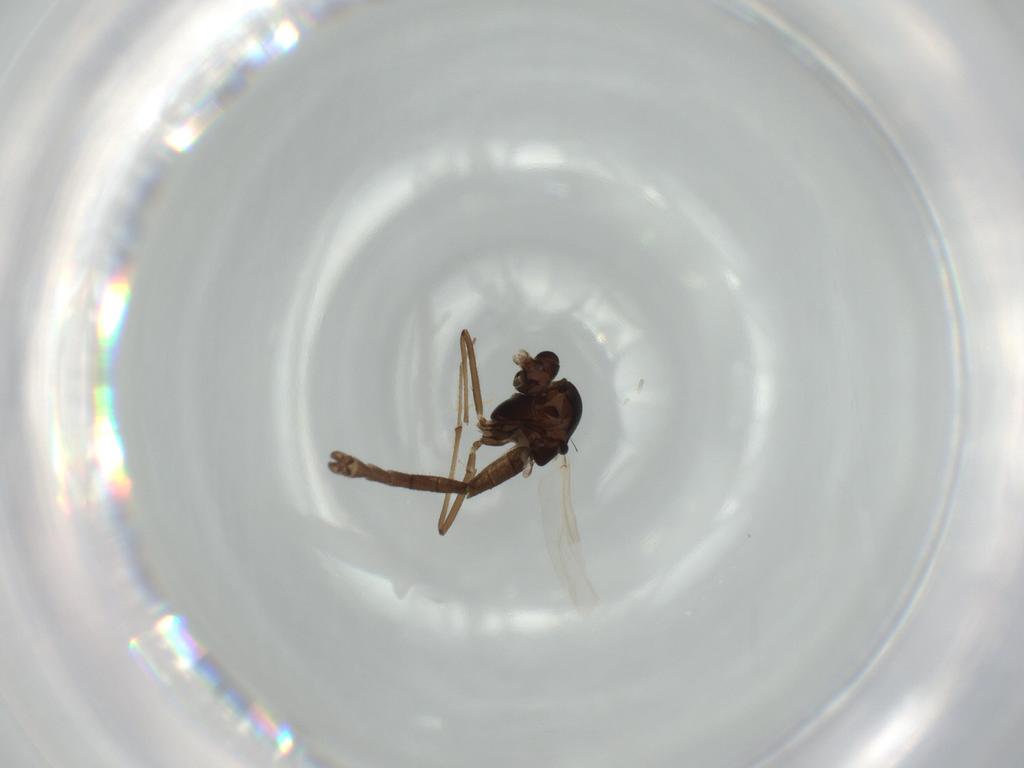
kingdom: Animalia
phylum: Arthropoda
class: Insecta
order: Diptera
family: Chironomidae
